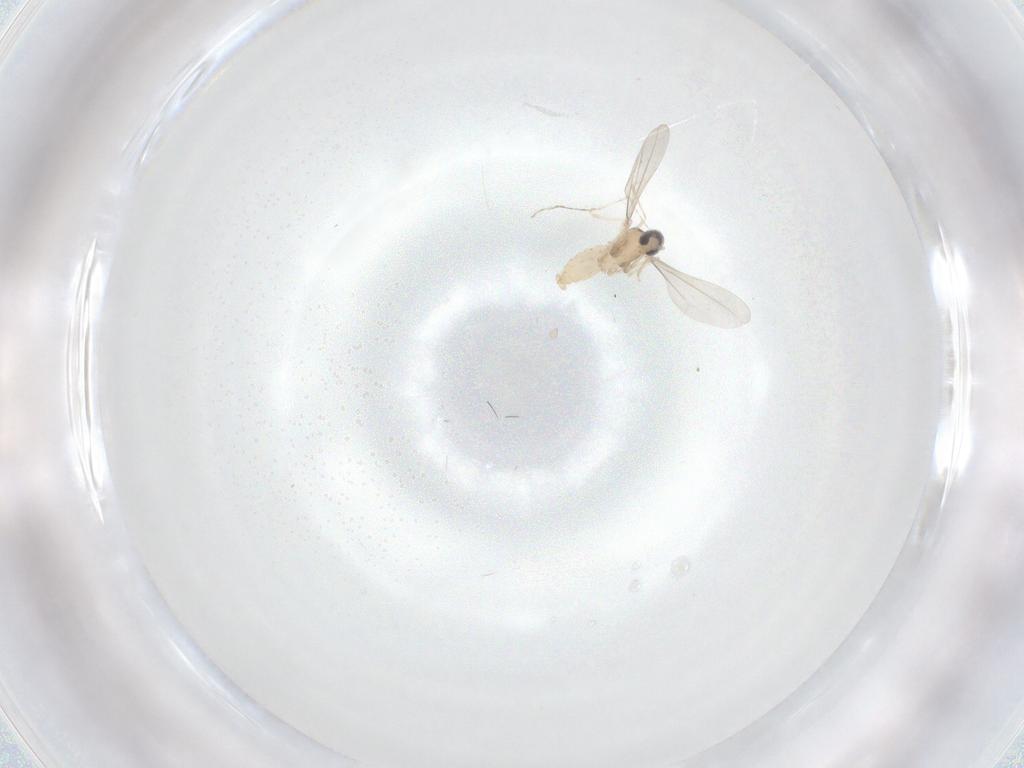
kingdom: Animalia
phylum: Arthropoda
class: Insecta
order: Diptera
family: Cecidomyiidae
